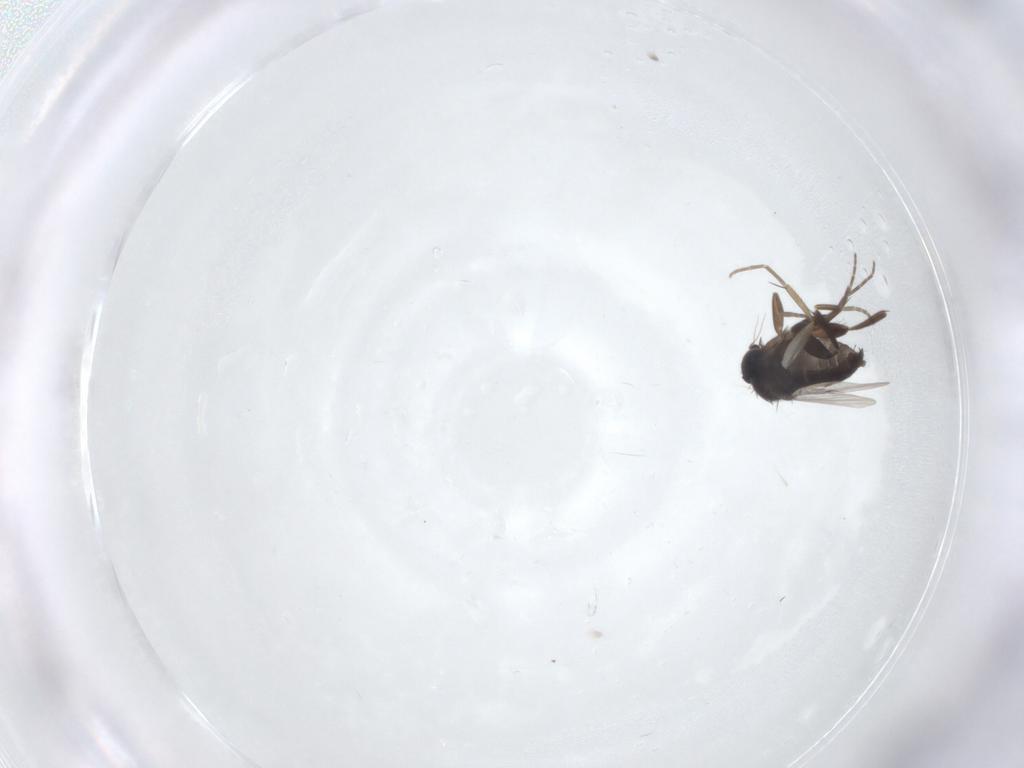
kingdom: Animalia
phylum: Arthropoda
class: Insecta
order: Diptera
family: Phoridae
